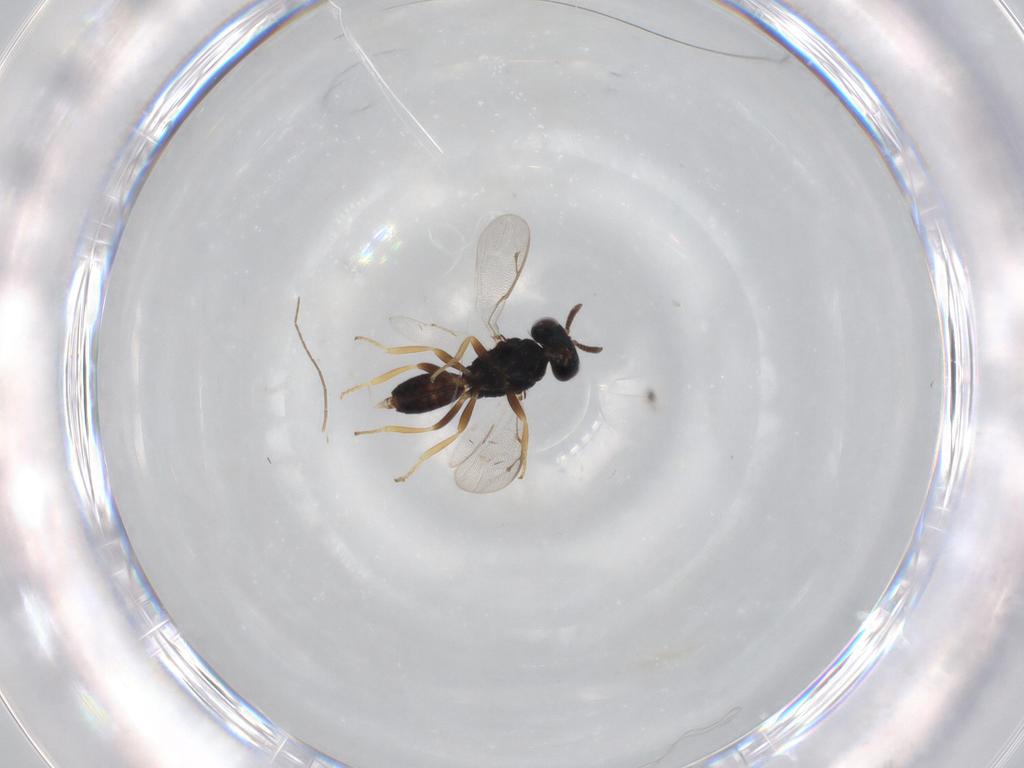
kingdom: Animalia
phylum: Arthropoda
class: Insecta
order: Hymenoptera
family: Pteromalidae
